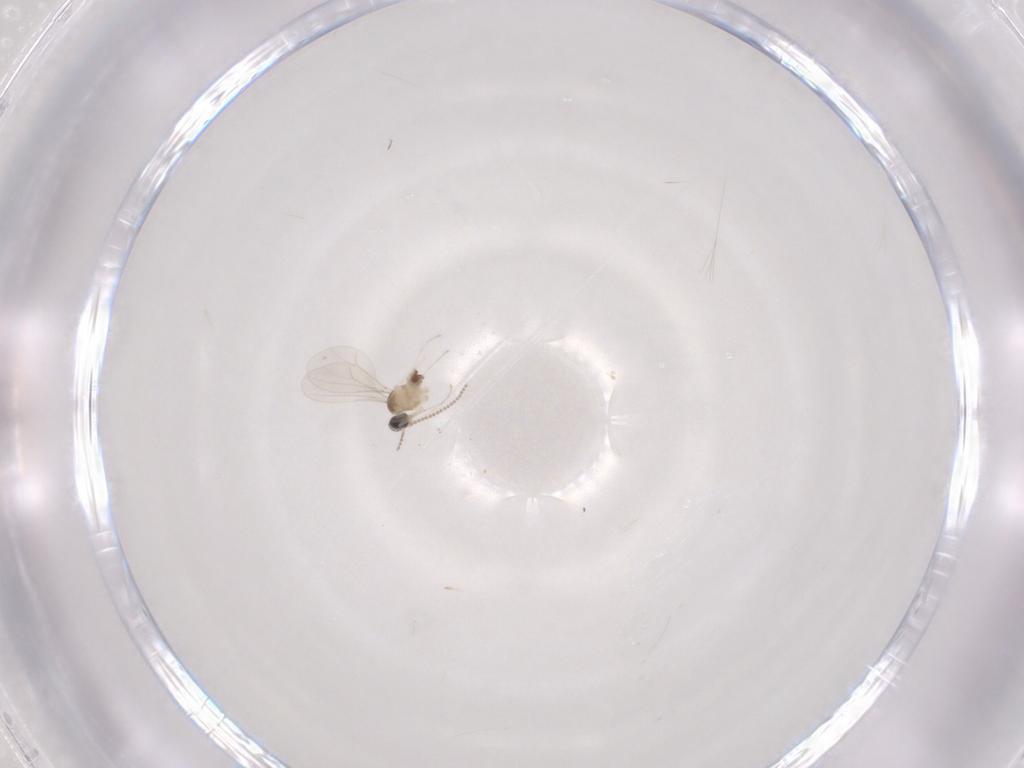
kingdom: Animalia
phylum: Arthropoda
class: Insecta
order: Diptera
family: Cecidomyiidae
